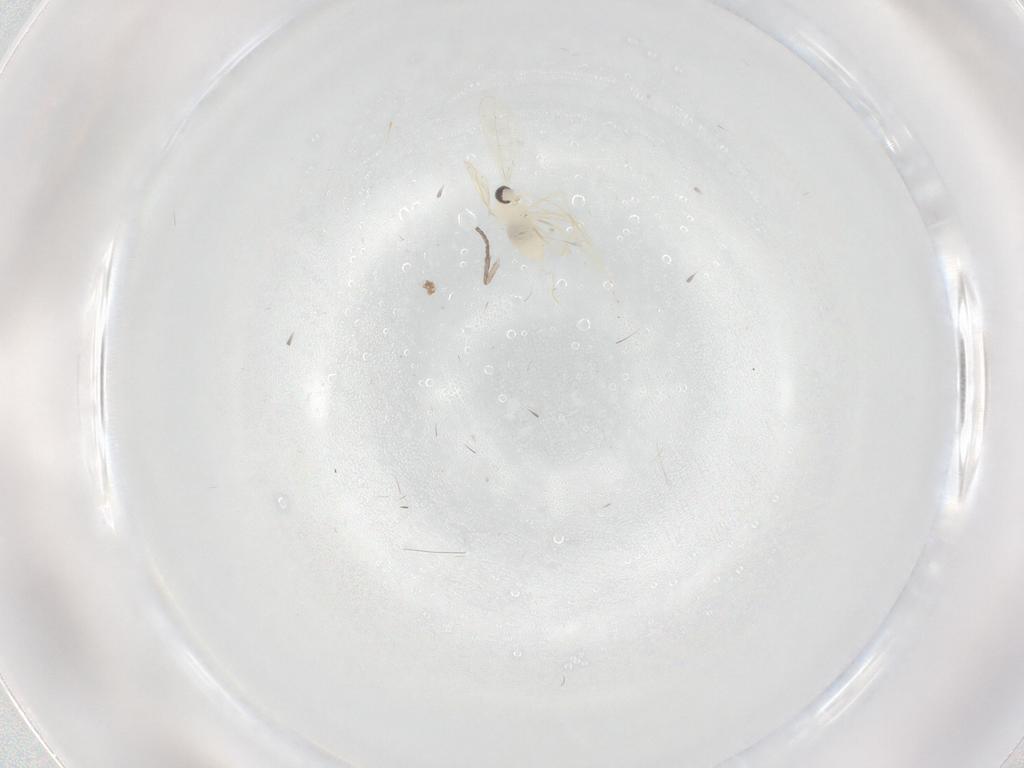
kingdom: Animalia
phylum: Arthropoda
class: Insecta
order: Diptera
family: Cecidomyiidae
